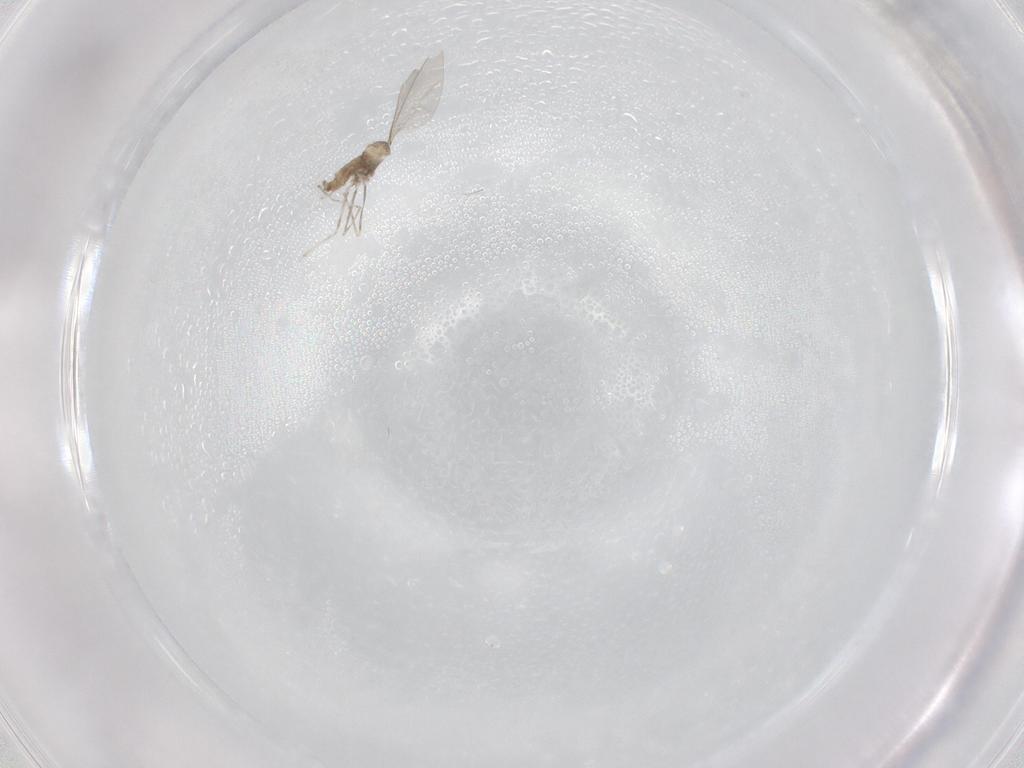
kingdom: Animalia
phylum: Arthropoda
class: Insecta
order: Diptera
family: Cecidomyiidae
